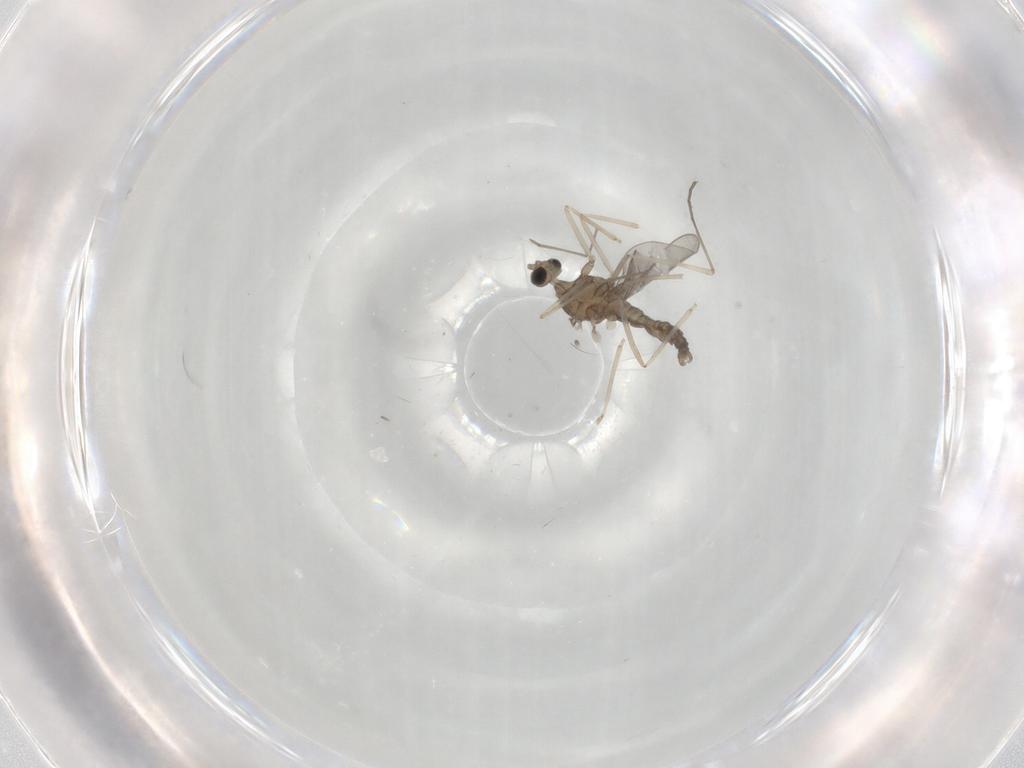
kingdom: Animalia
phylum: Arthropoda
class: Insecta
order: Diptera
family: Cecidomyiidae
